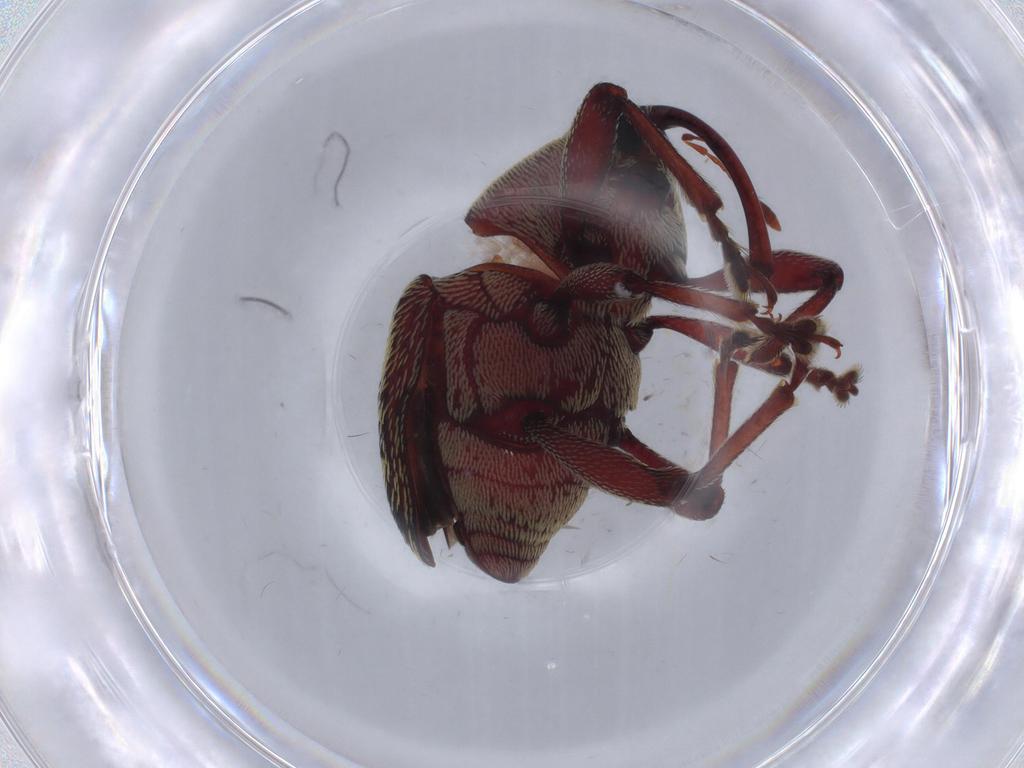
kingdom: Animalia
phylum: Arthropoda
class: Insecta
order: Coleoptera
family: Chrysomelidae
